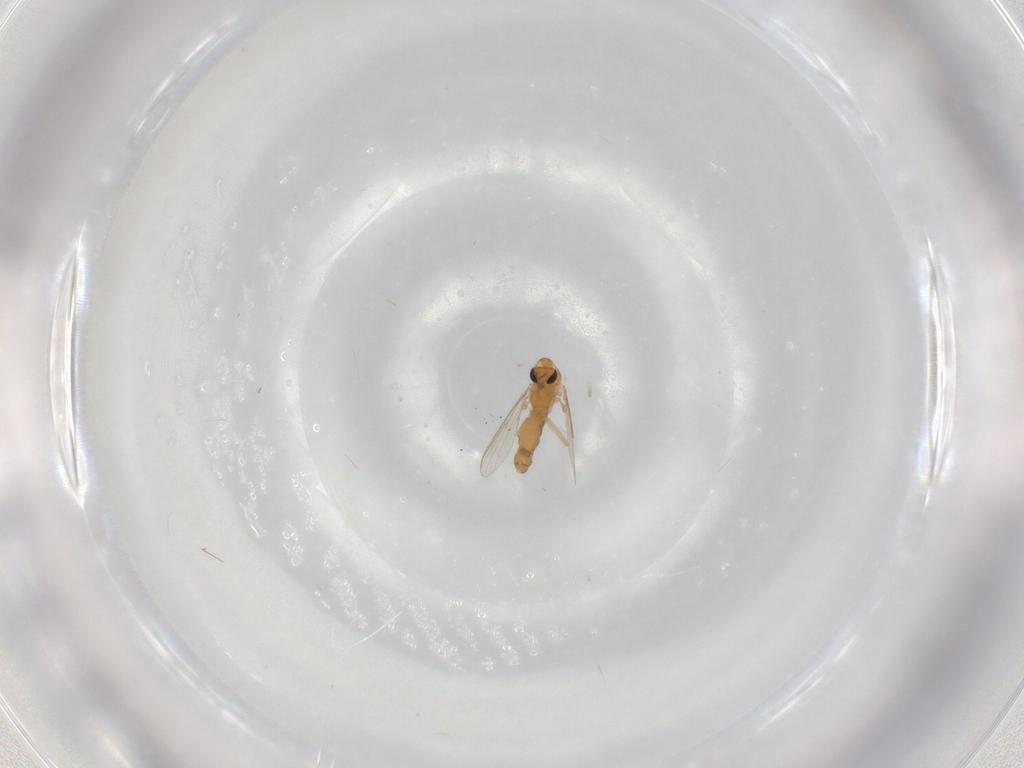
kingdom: Animalia
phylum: Arthropoda
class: Insecta
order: Diptera
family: Chironomidae
